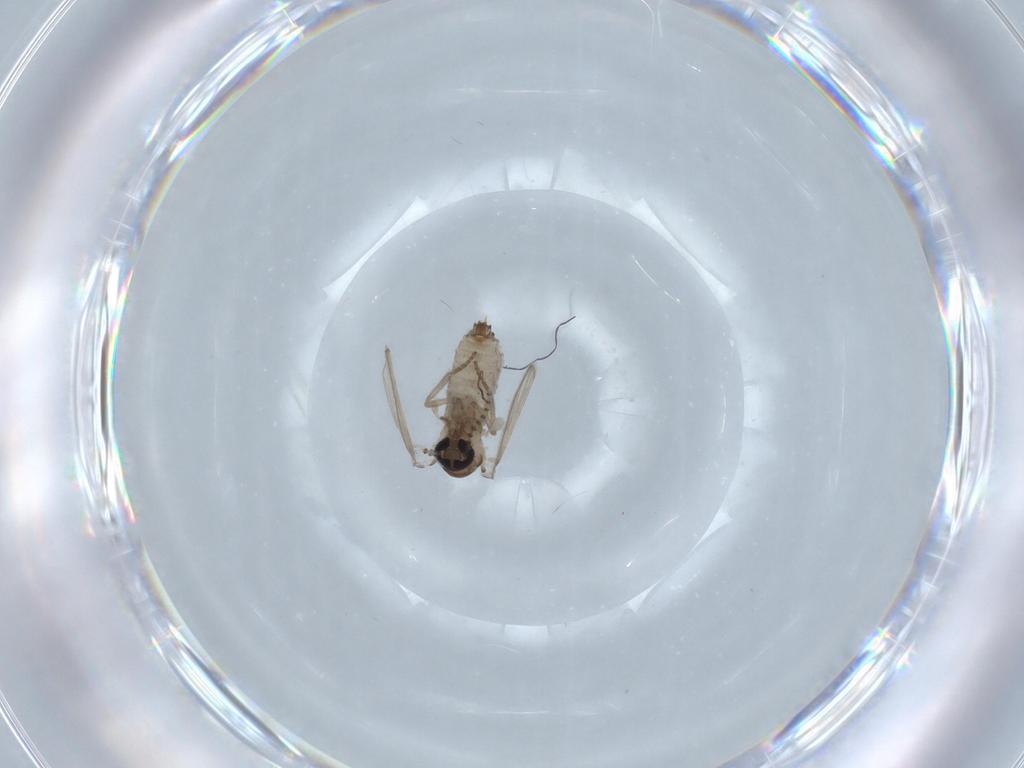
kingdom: Animalia
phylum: Arthropoda
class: Insecta
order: Diptera
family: Psychodidae
